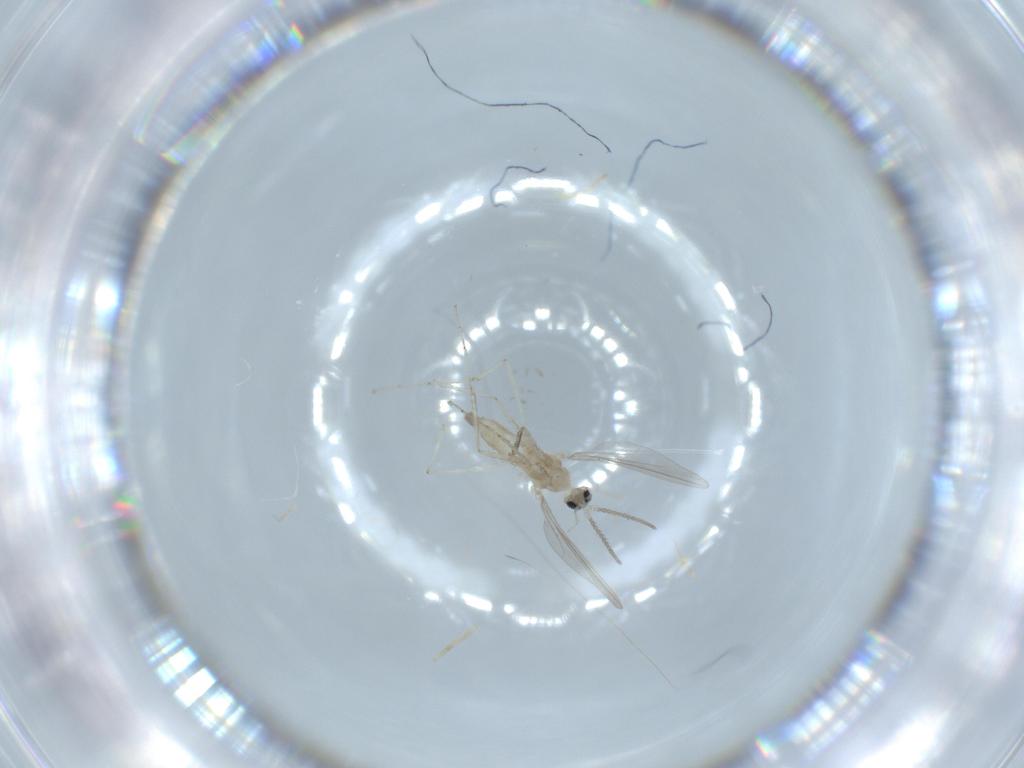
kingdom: Animalia
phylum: Arthropoda
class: Insecta
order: Diptera
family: Cecidomyiidae
